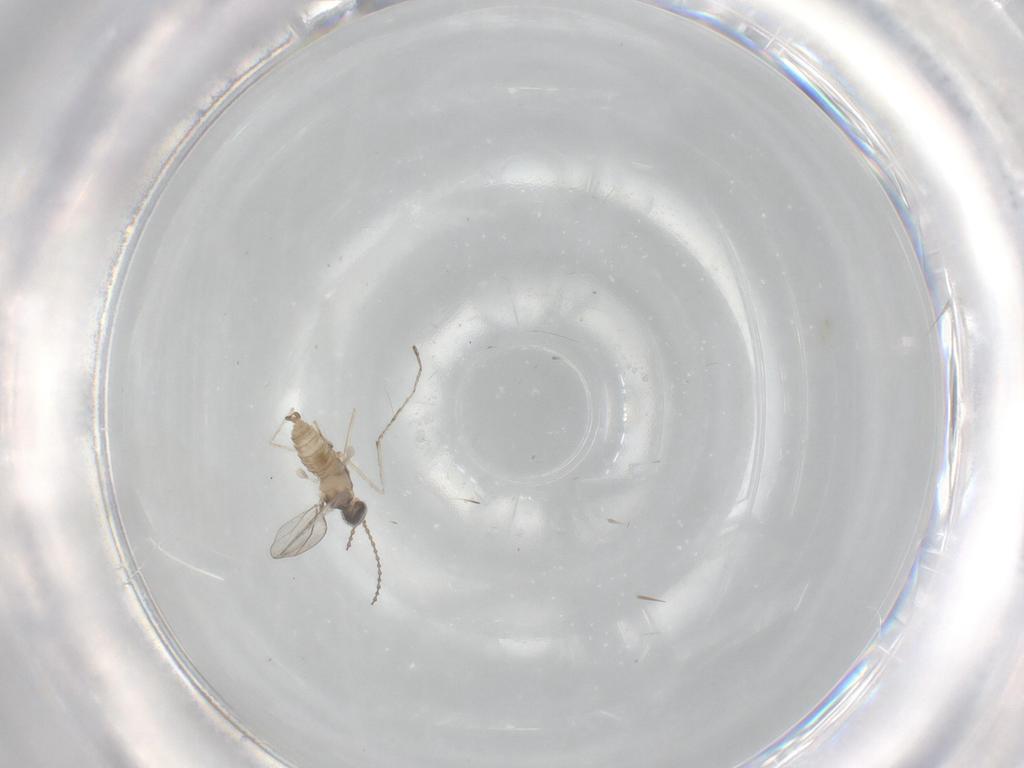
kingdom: Animalia
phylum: Arthropoda
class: Insecta
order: Diptera
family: Cecidomyiidae
